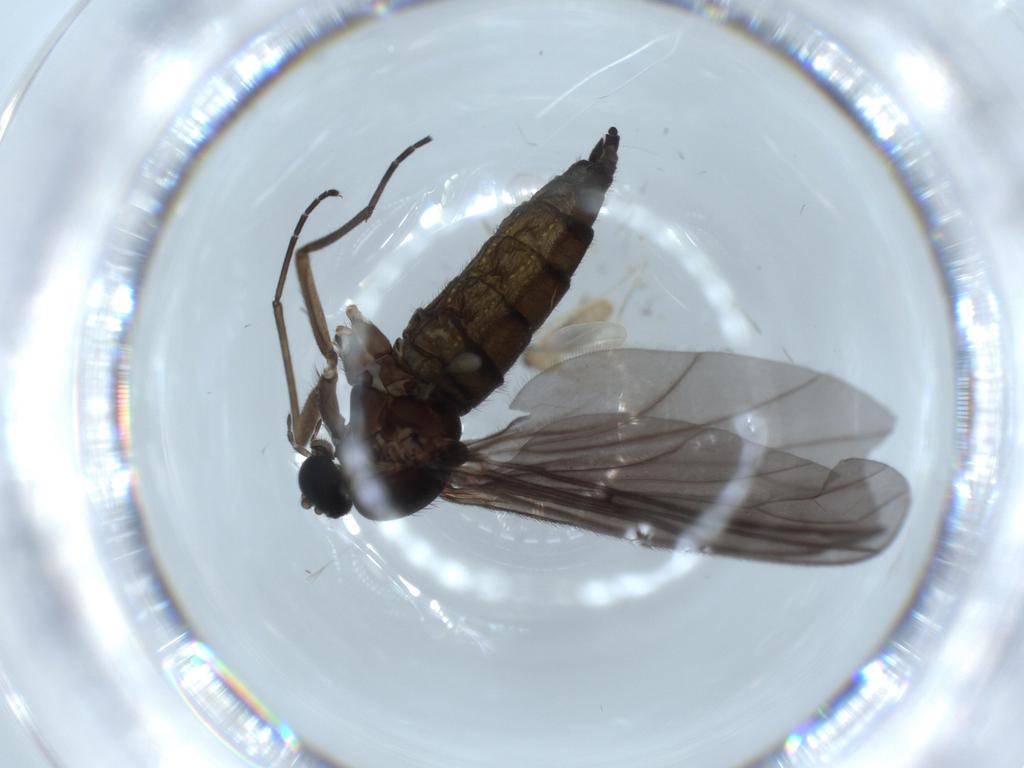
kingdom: Animalia
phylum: Arthropoda
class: Insecta
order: Diptera
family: Sciaridae
